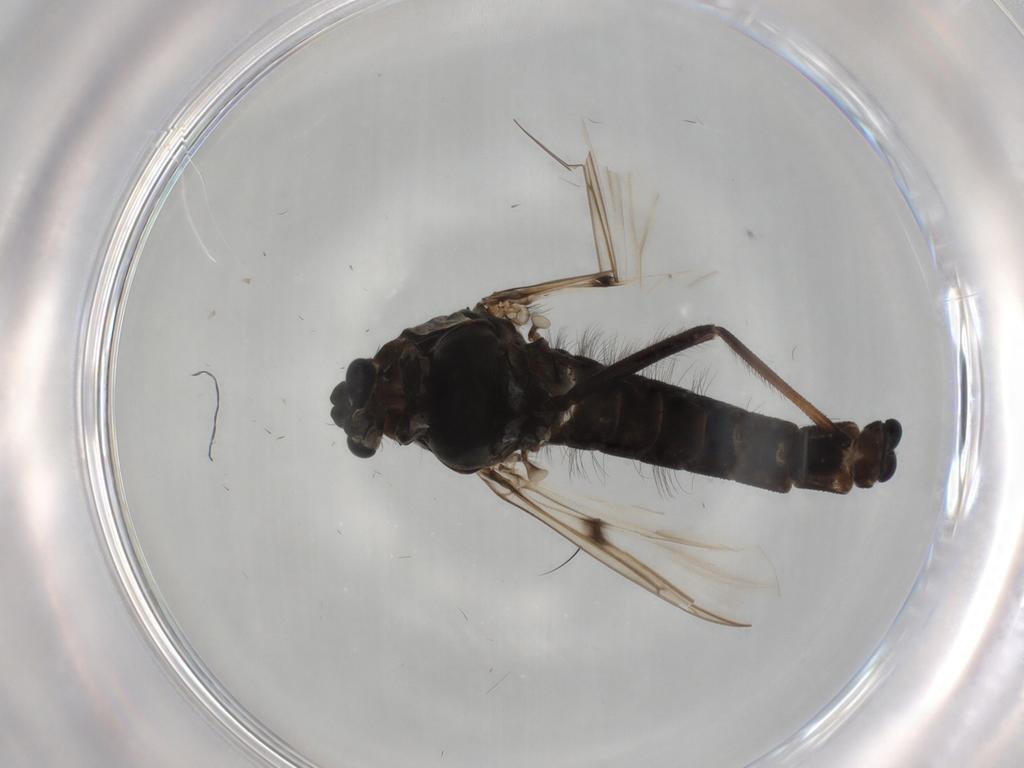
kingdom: Animalia
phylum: Arthropoda
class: Insecta
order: Diptera
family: Chironomidae
